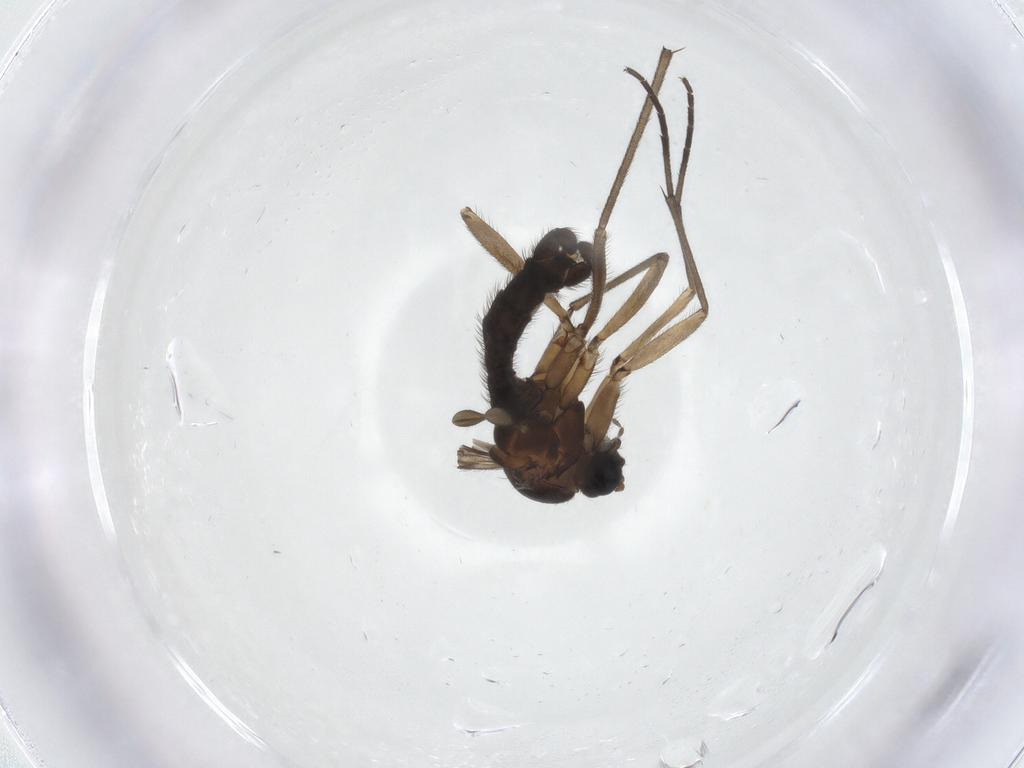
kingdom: Animalia
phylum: Arthropoda
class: Insecta
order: Diptera
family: Sciaridae
